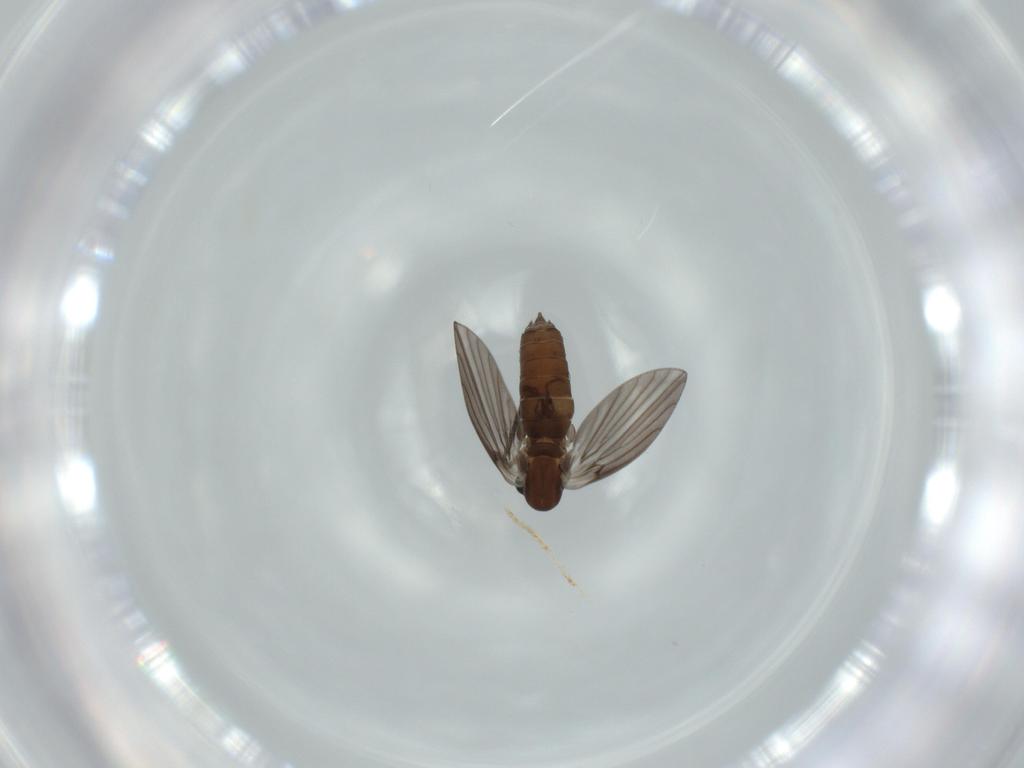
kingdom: Animalia
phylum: Arthropoda
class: Insecta
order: Diptera
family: Psychodidae
